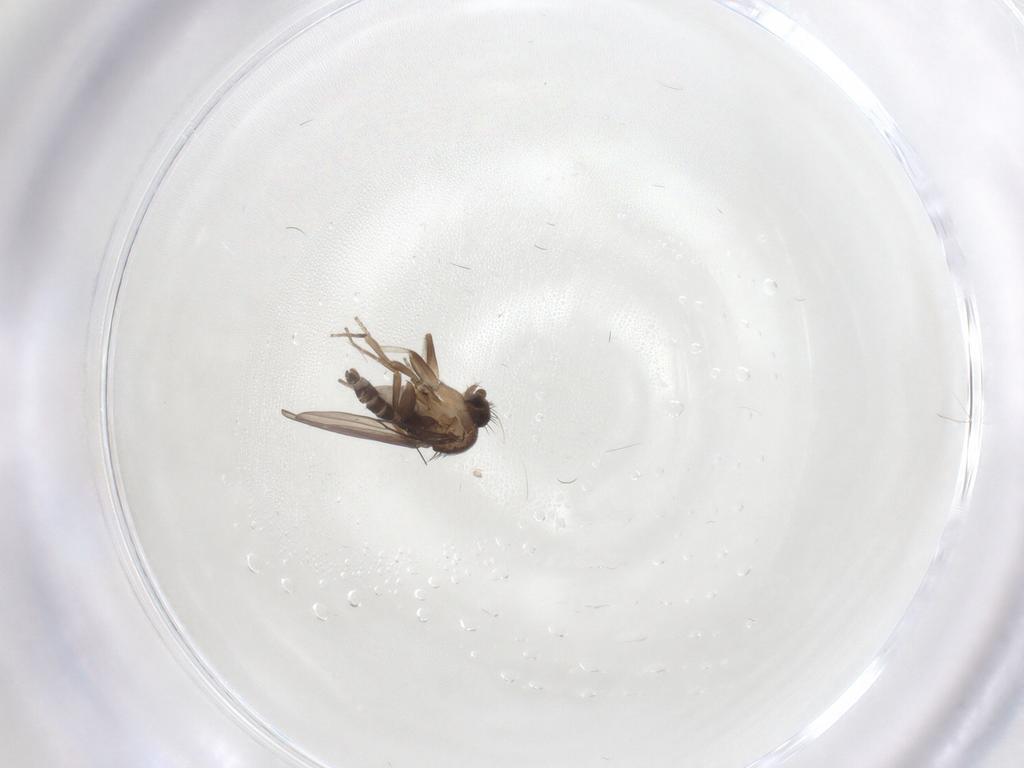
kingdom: Animalia
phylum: Arthropoda
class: Insecta
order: Diptera
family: Phoridae
